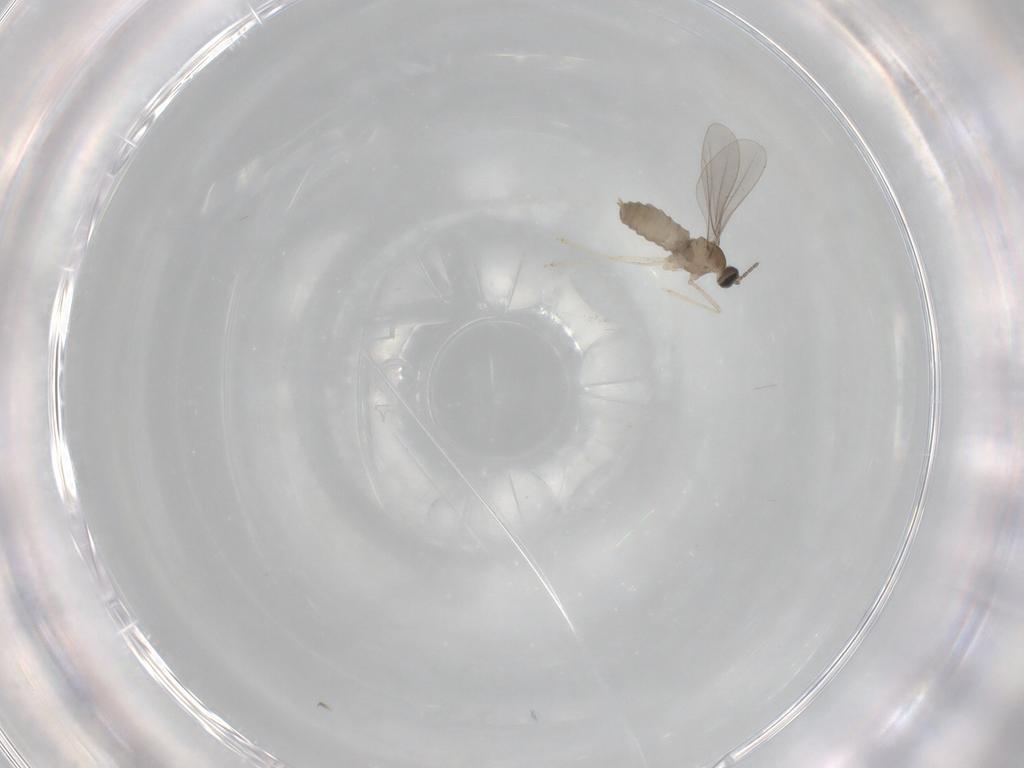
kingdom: Animalia
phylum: Arthropoda
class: Insecta
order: Diptera
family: Cecidomyiidae
